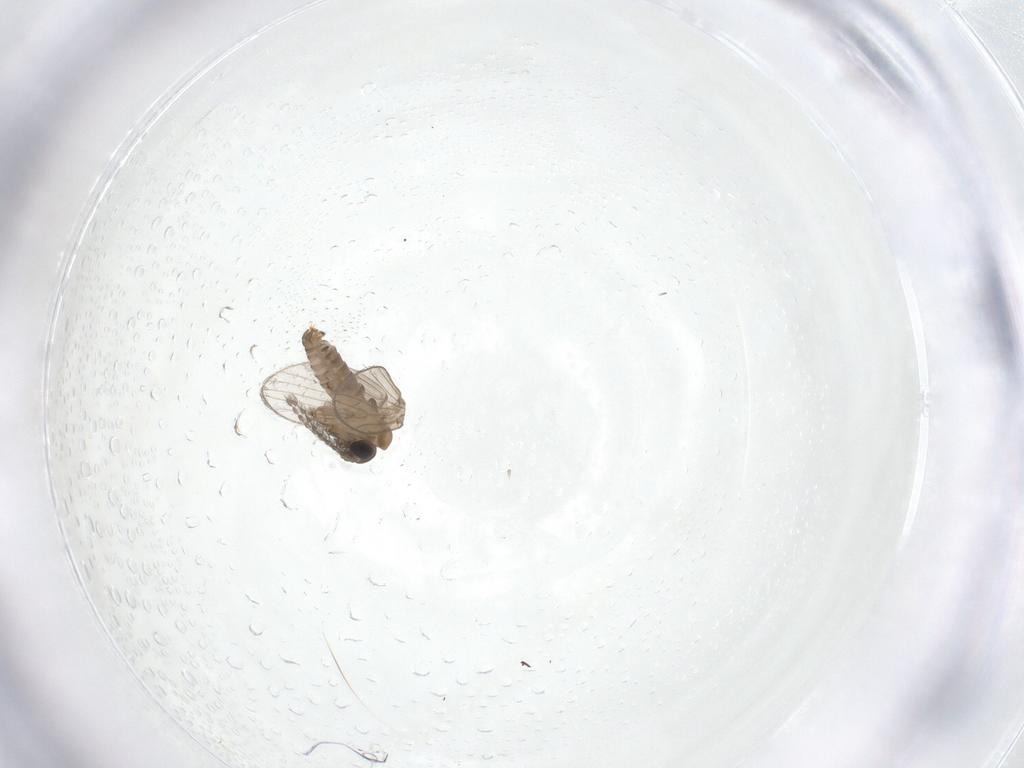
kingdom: Animalia
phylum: Arthropoda
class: Insecta
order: Diptera
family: Psychodidae
